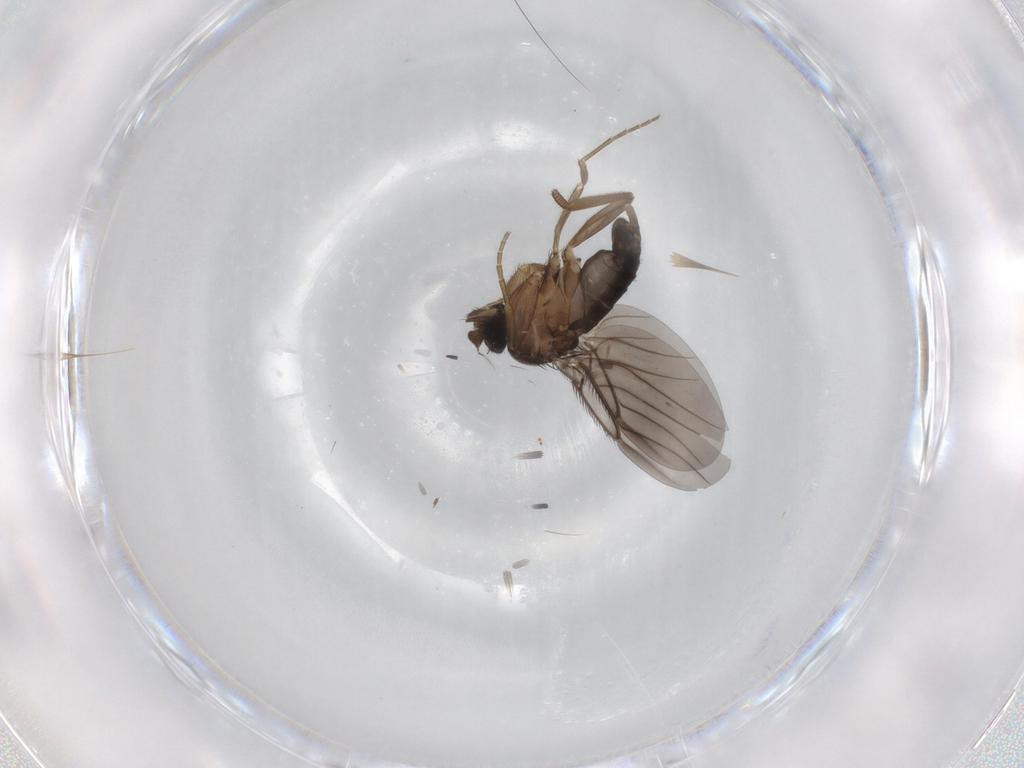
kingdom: Animalia
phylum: Arthropoda
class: Insecta
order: Diptera
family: Phoridae
